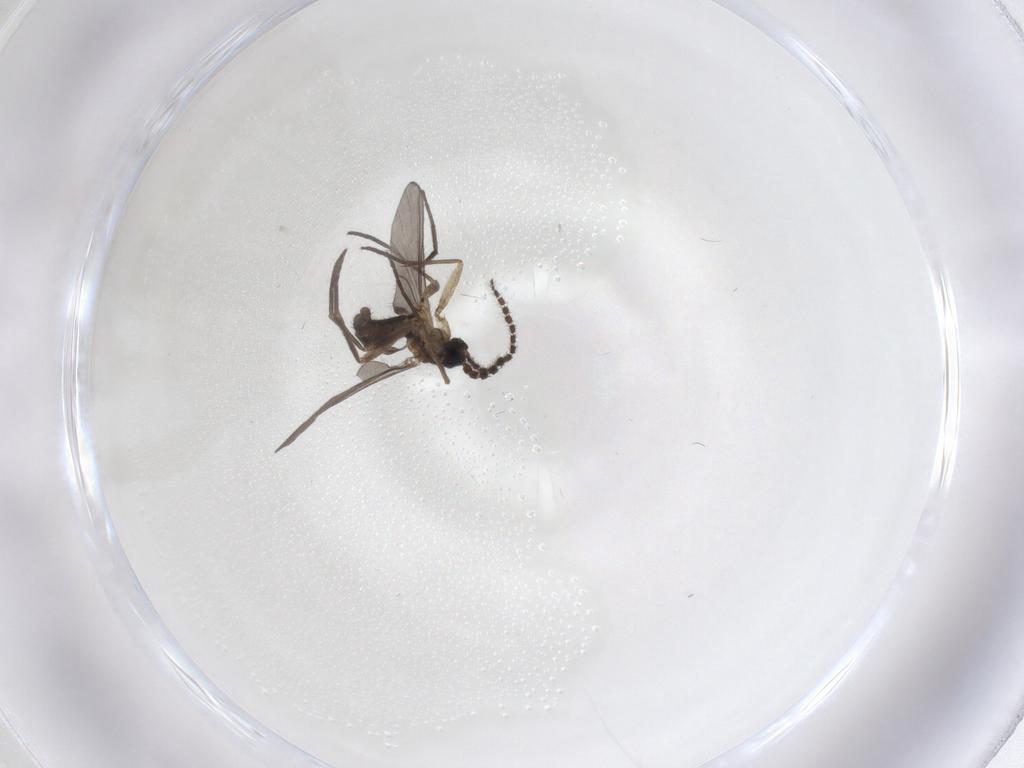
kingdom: Animalia
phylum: Arthropoda
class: Insecta
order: Diptera
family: Sciaridae
